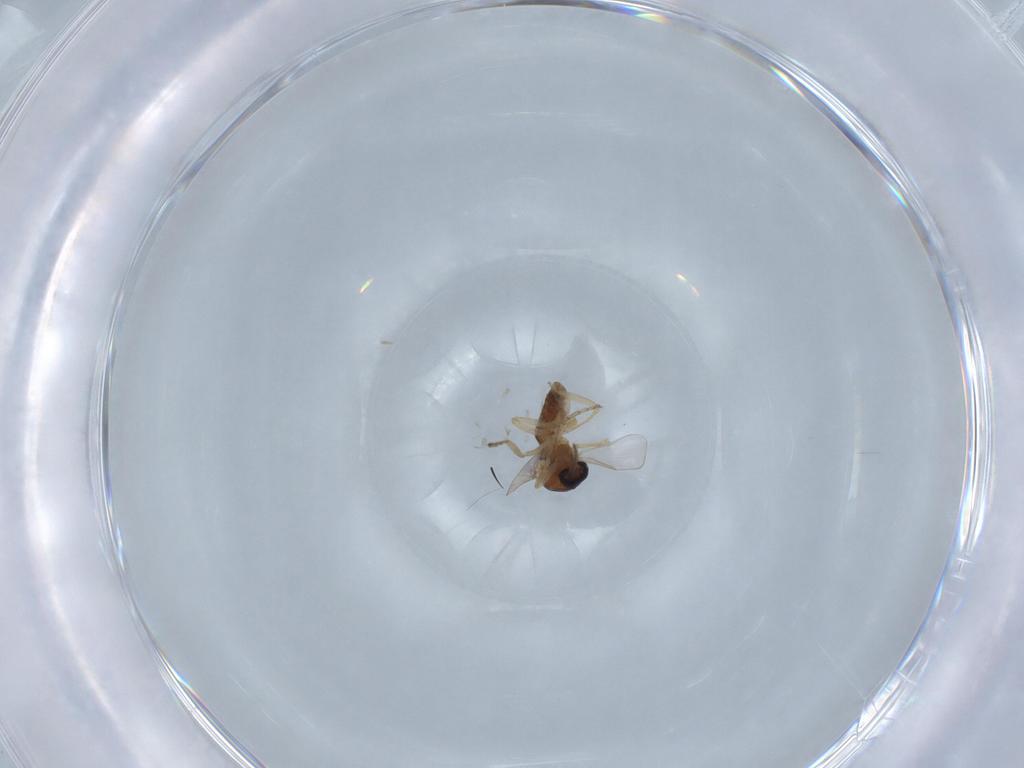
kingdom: Animalia
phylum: Arthropoda
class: Insecta
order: Diptera
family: Ceratopogonidae
